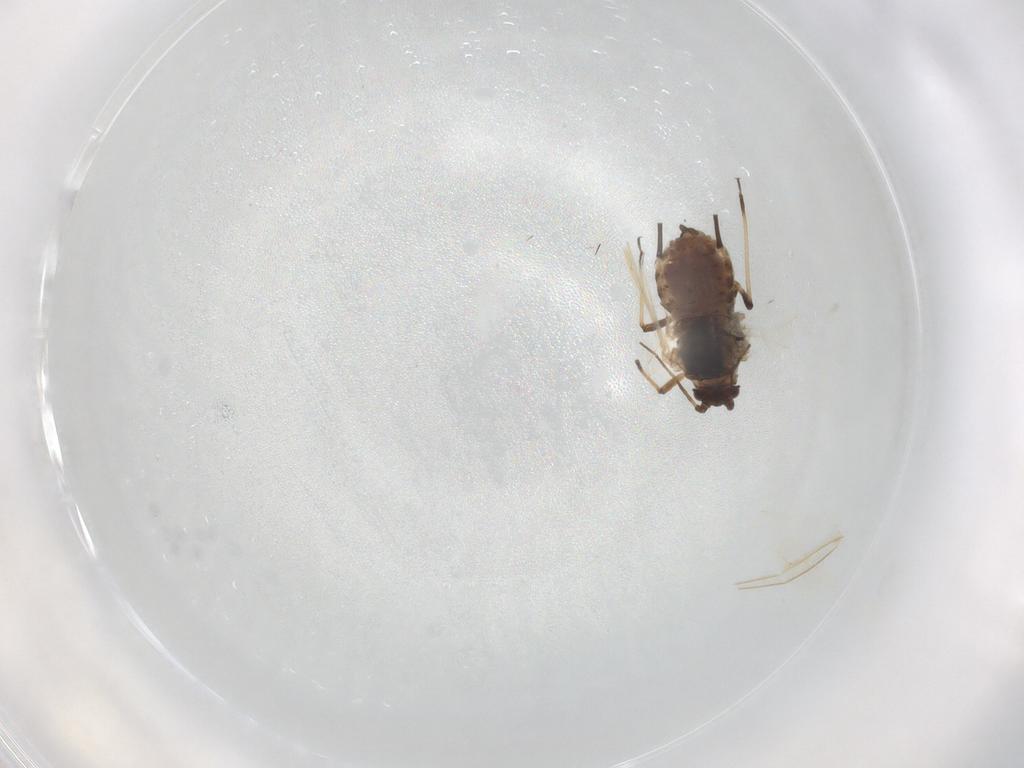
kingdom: Animalia
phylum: Arthropoda
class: Insecta
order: Hemiptera
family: Aphididae
